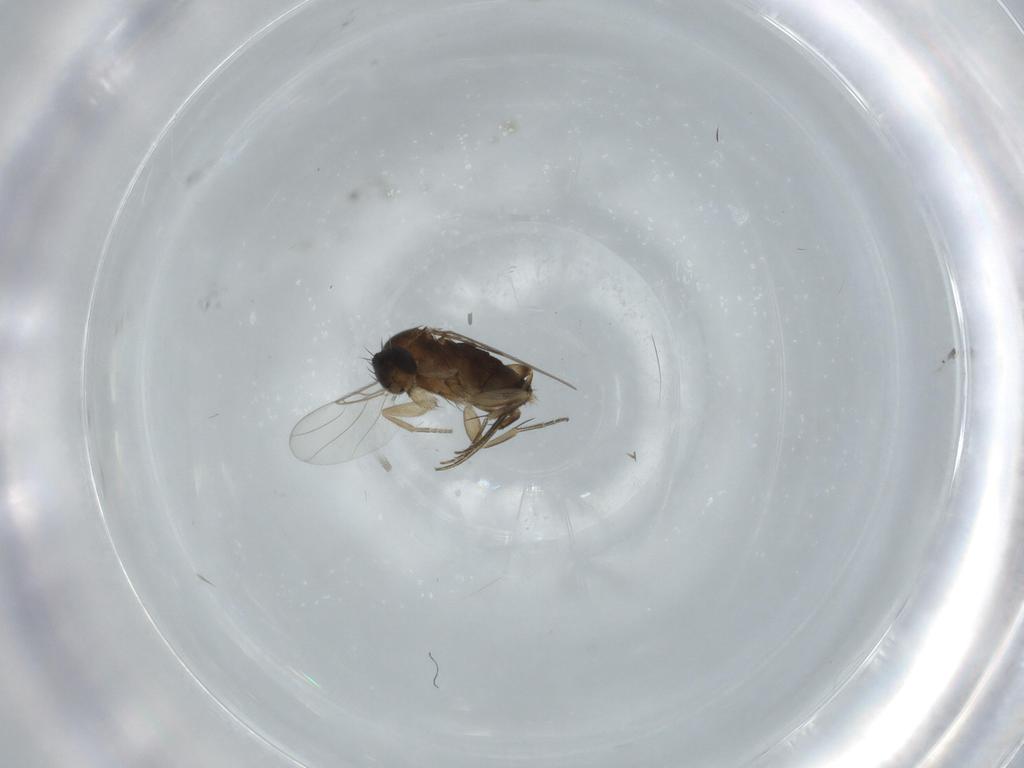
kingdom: Animalia
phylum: Arthropoda
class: Insecta
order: Diptera
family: Phoridae
